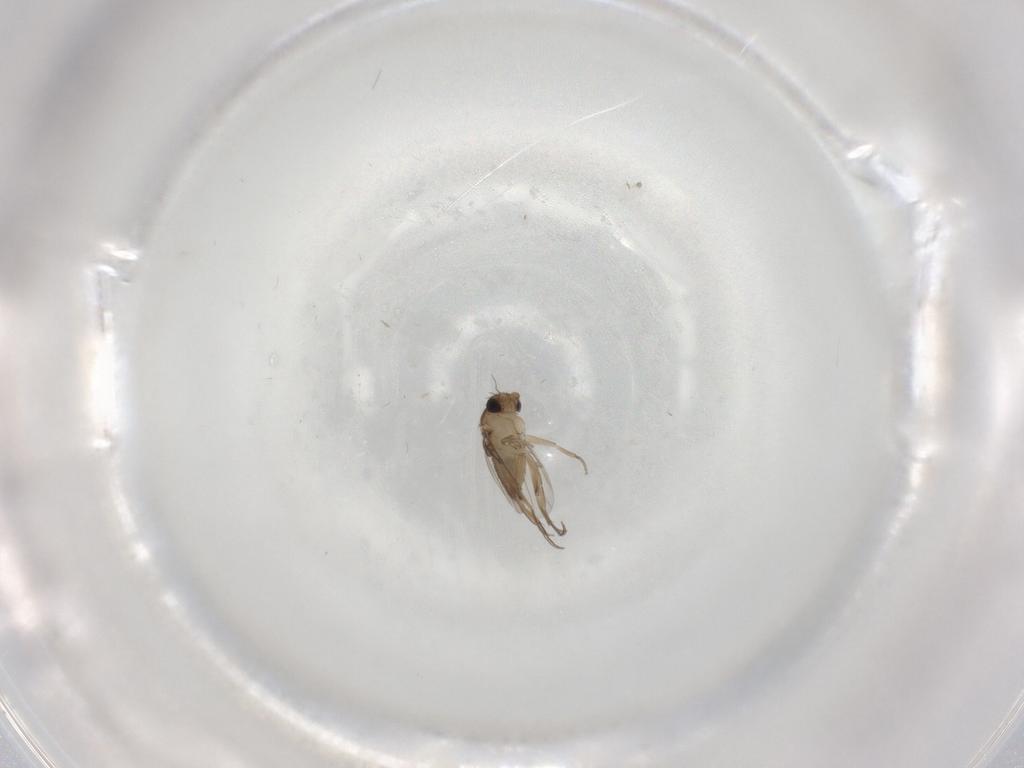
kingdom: Animalia
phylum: Arthropoda
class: Insecta
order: Diptera
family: Phoridae
